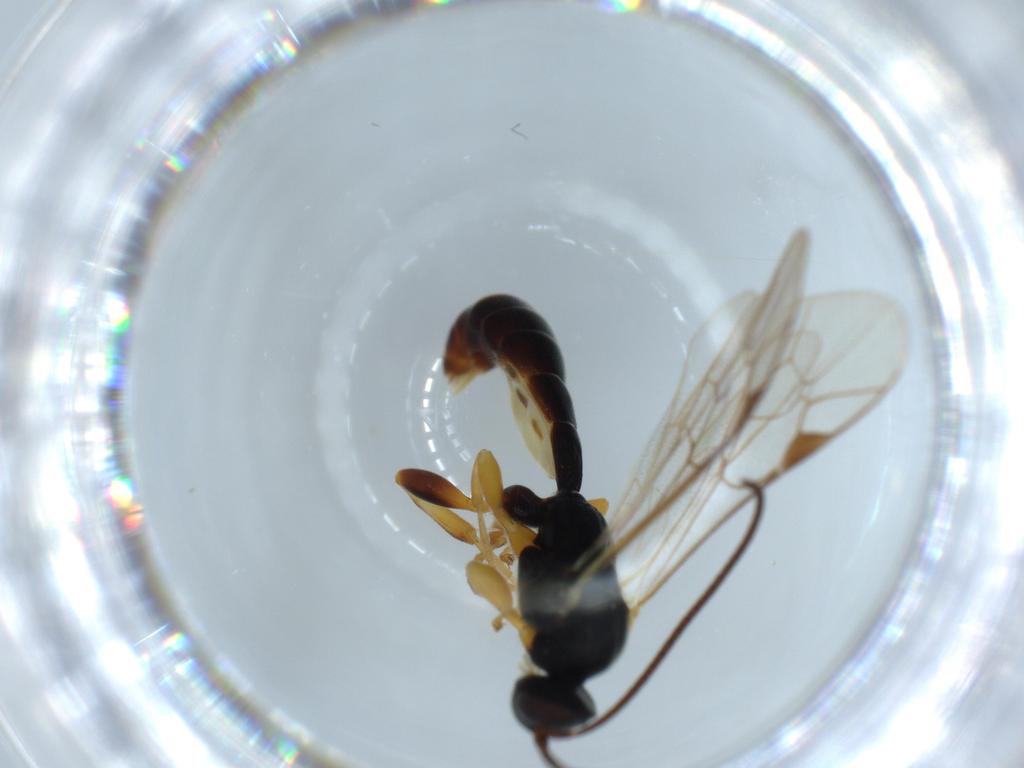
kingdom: Animalia
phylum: Arthropoda
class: Insecta
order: Hymenoptera
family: Ichneumonidae
